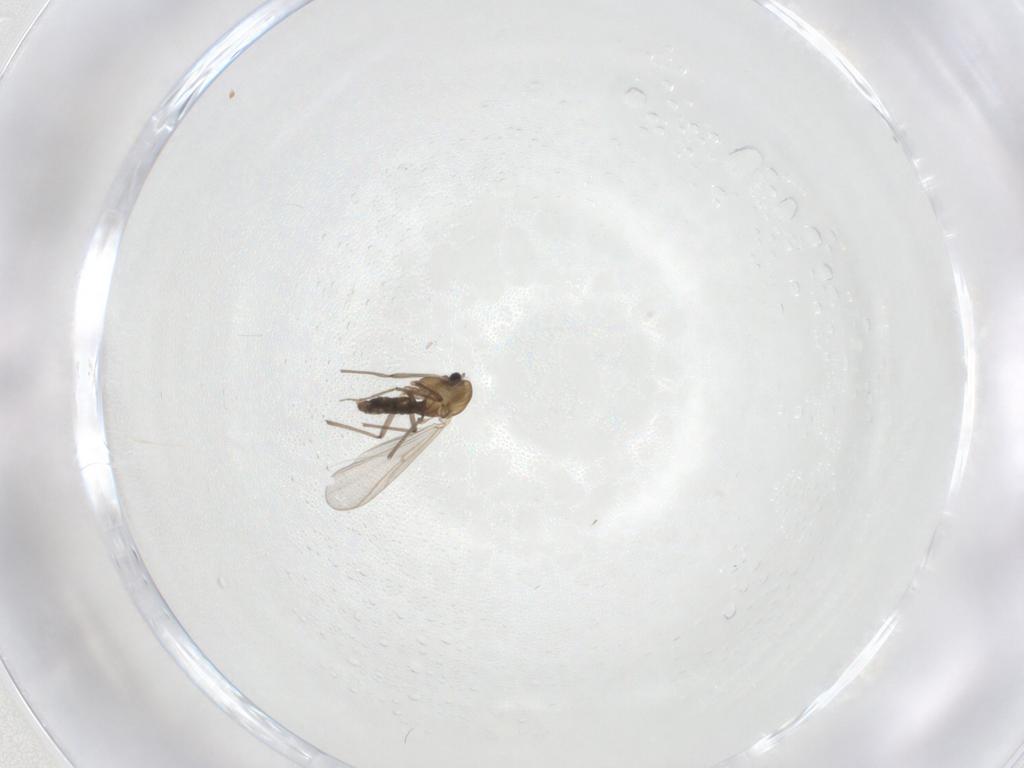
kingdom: Animalia
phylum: Arthropoda
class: Insecta
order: Diptera
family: Chironomidae
